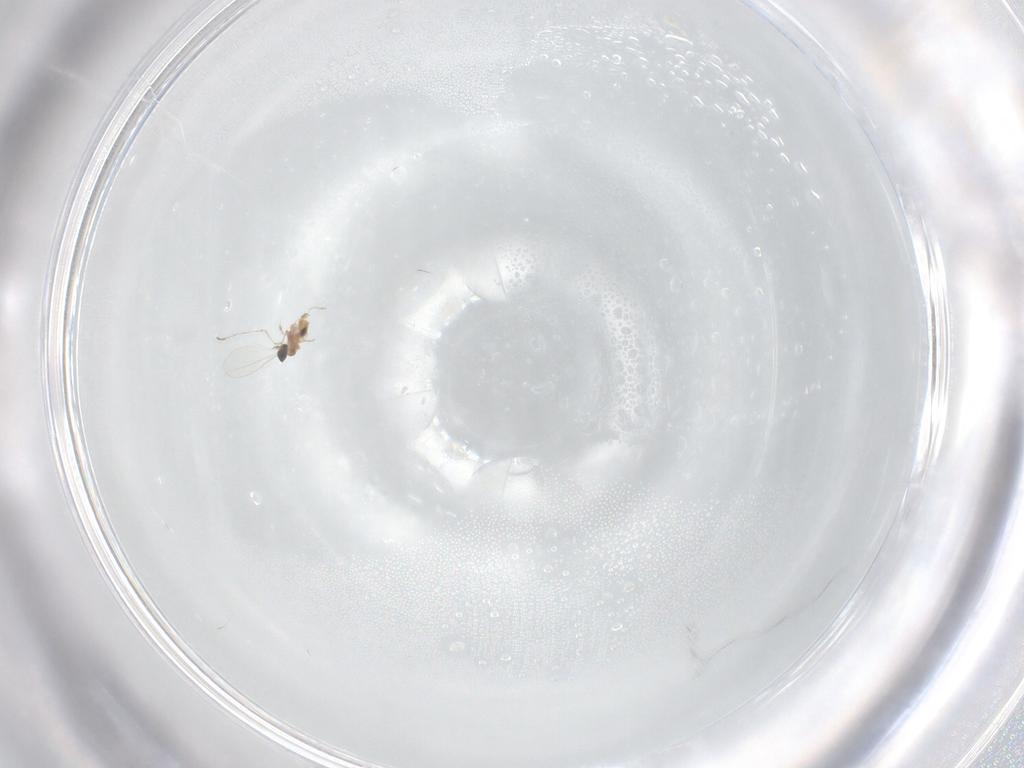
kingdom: Animalia
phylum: Arthropoda
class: Insecta
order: Diptera
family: Cecidomyiidae
